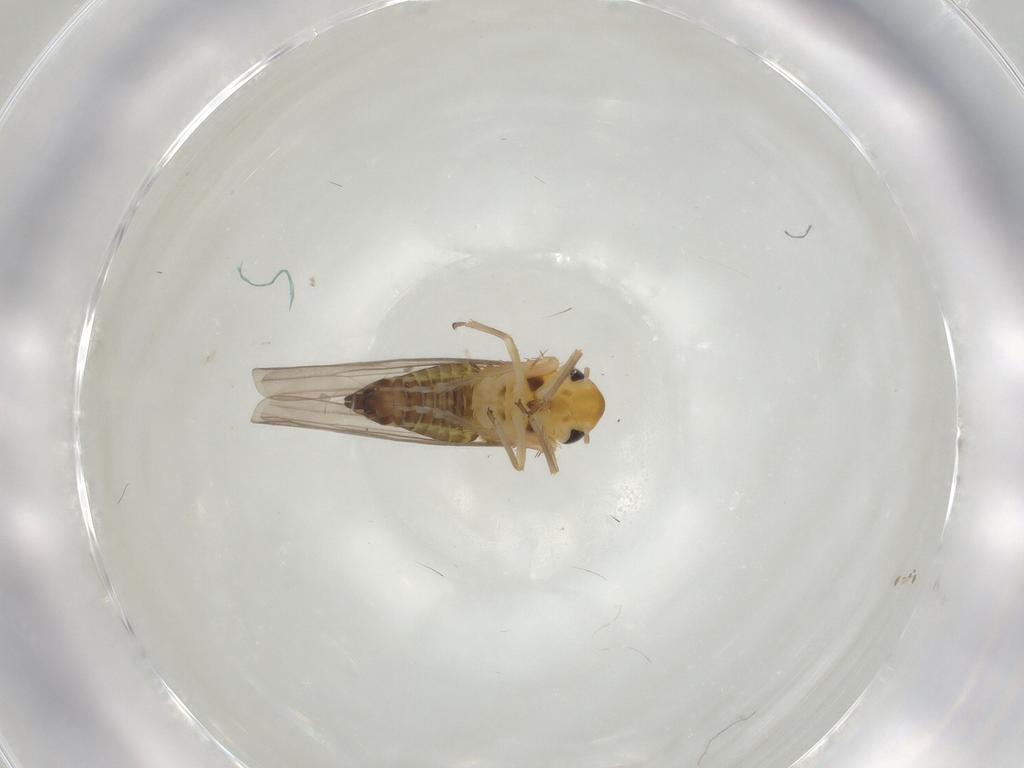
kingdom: Animalia
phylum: Arthropoda
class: Insecta
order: Hemiptera
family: Cicadellidae
